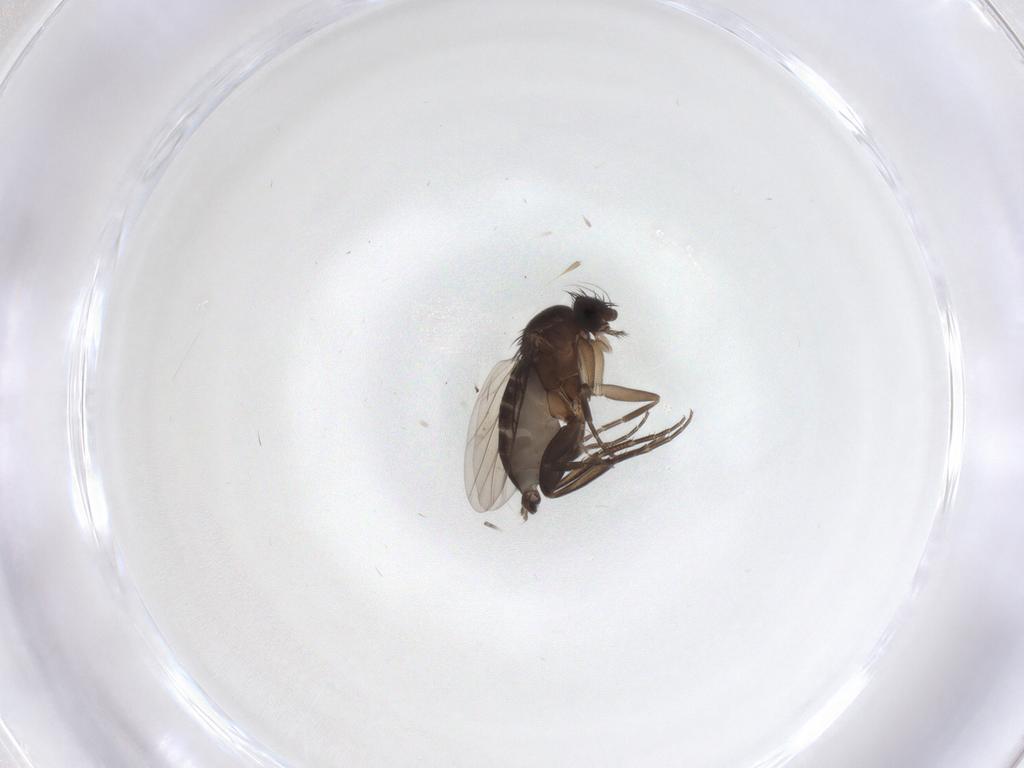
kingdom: Animalia
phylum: Arthropoda
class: Insecta
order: Diptera
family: Phoridae
